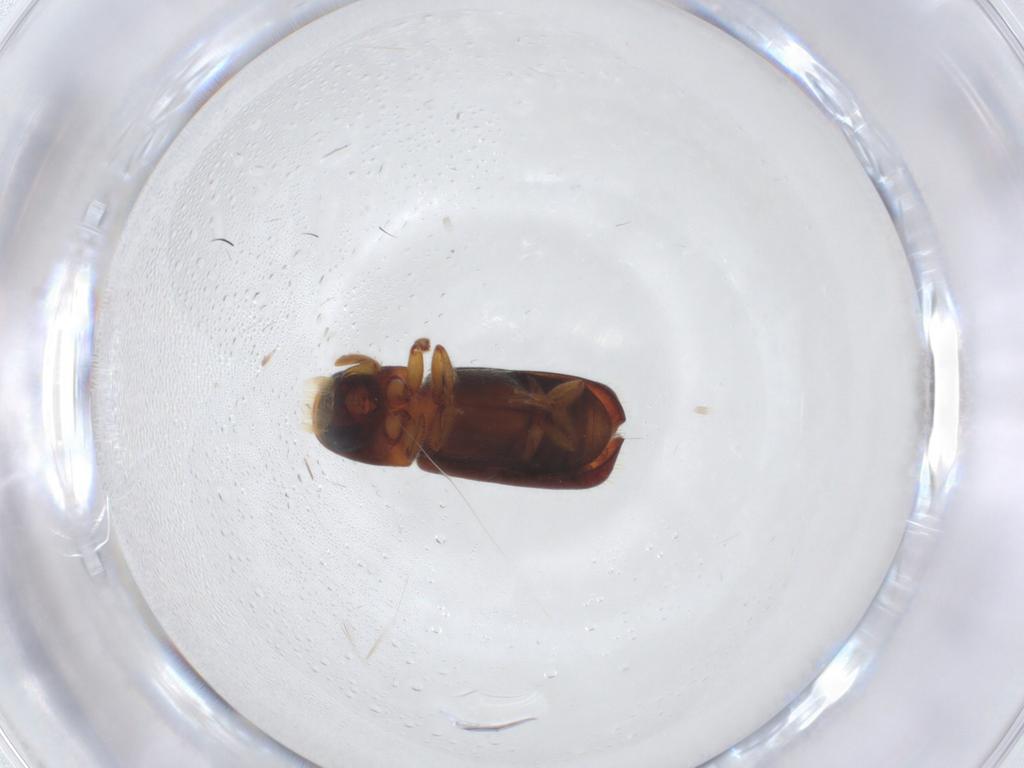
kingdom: Animalia
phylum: Arthropoda
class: Insecta
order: Coleoptera
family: Curculionidae
